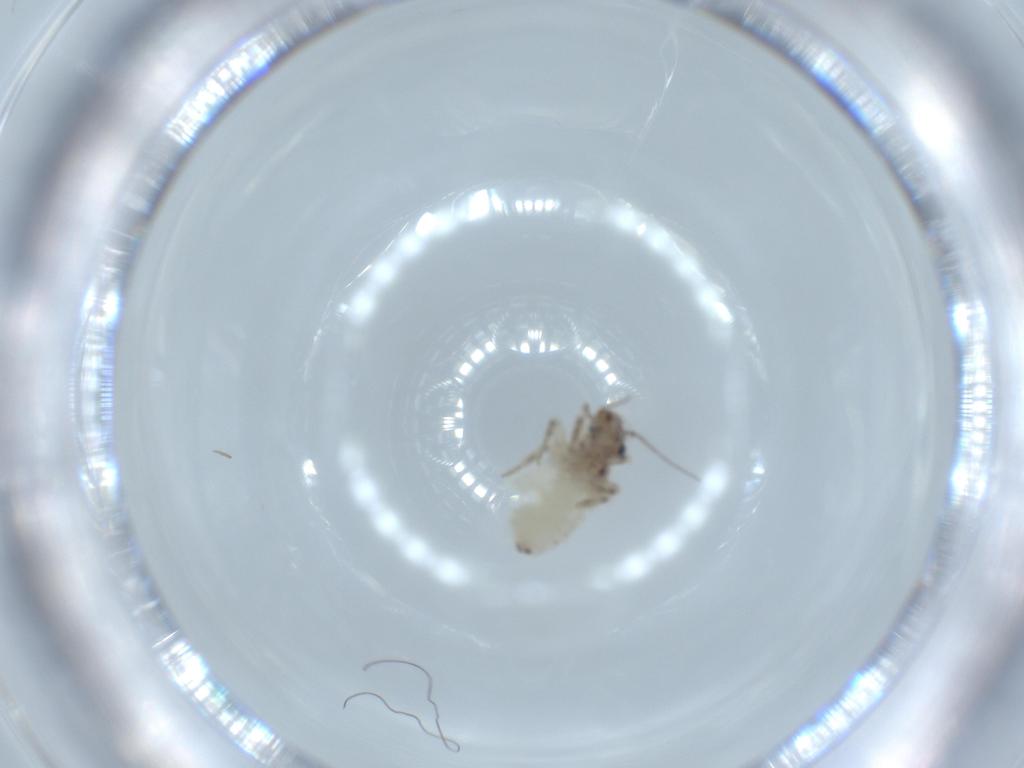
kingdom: Animalia
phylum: Arthropoda
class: Insecta
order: Psocodea
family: Lepidopsocidae
